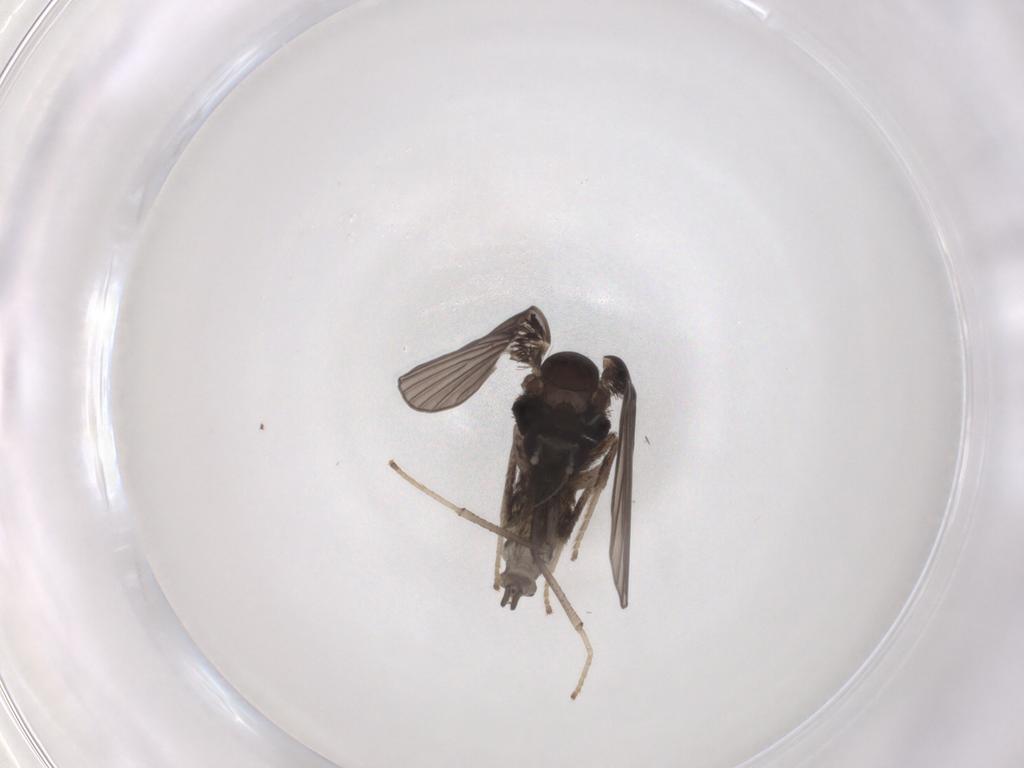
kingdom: Animalia
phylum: Arthropoda
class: Insecta
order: Diptera
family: Psychodidae
